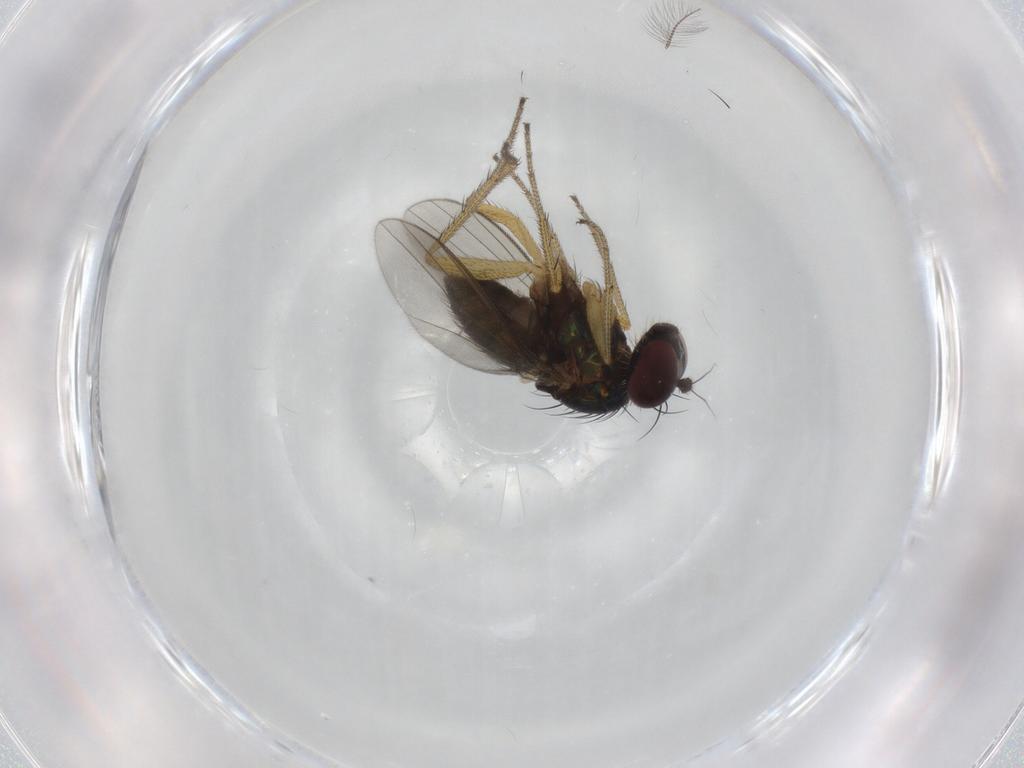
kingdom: Animalia
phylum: Arthropoda
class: Insecta
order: Diptera
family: Dolichopodidae
